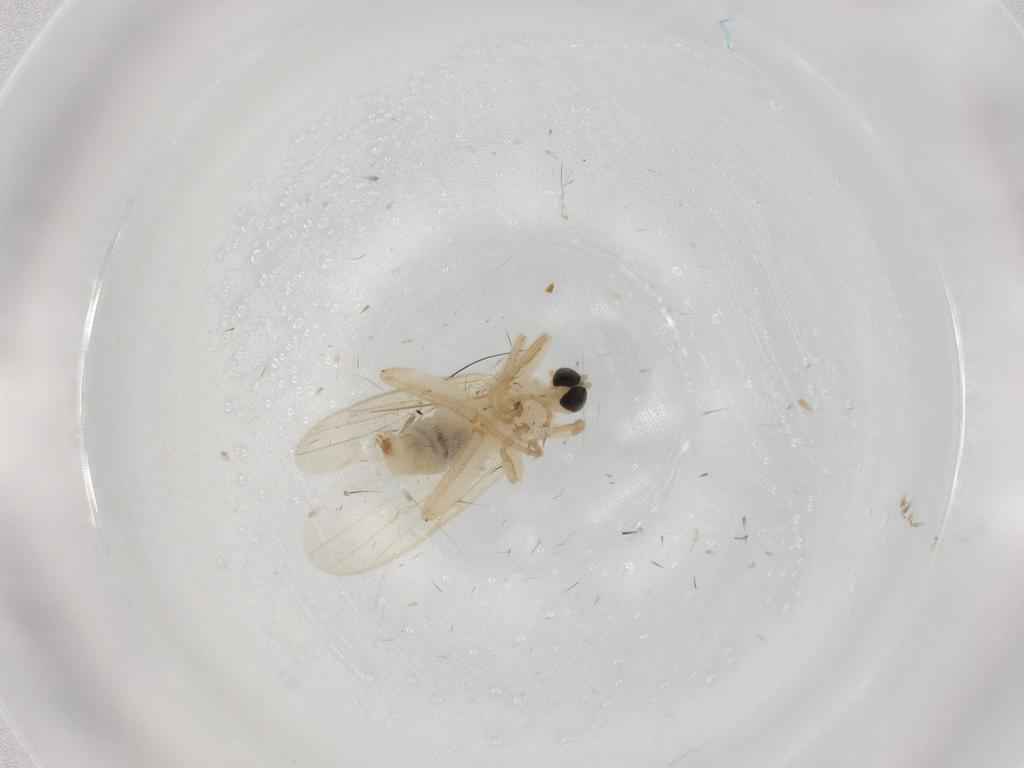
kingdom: Animalia
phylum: Arthropoda
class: Insecta
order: Diptera
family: Hybotidae
